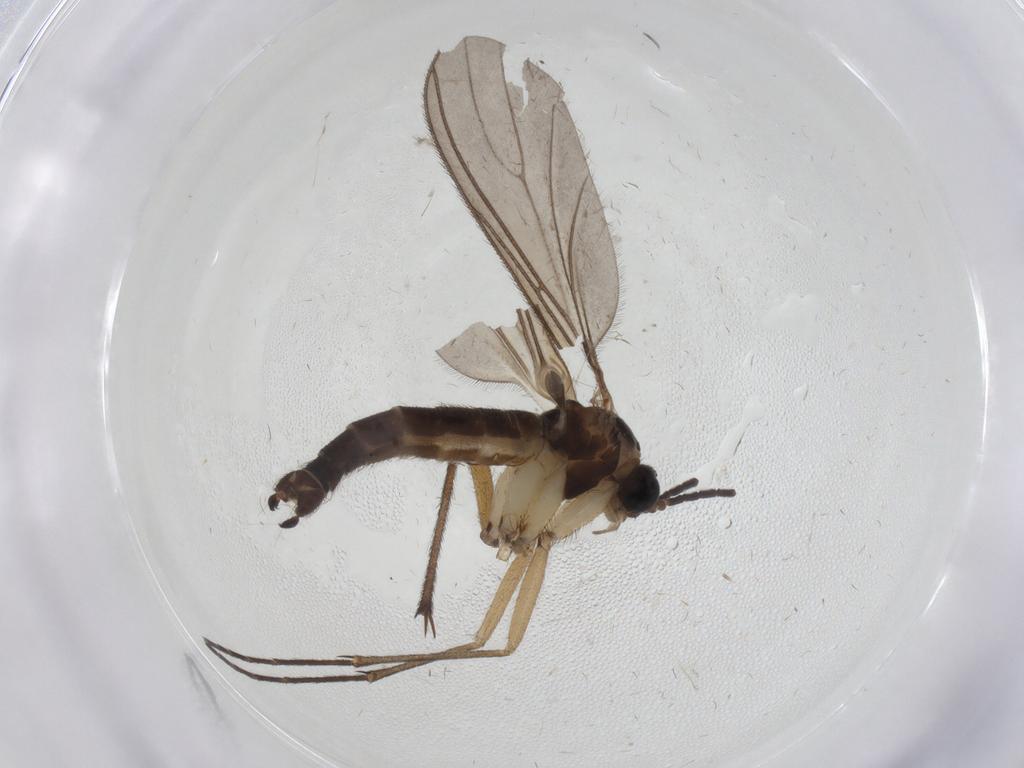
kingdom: Animalia
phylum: Arthropoda
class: Insecta
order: Diptera
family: Sciaridae
